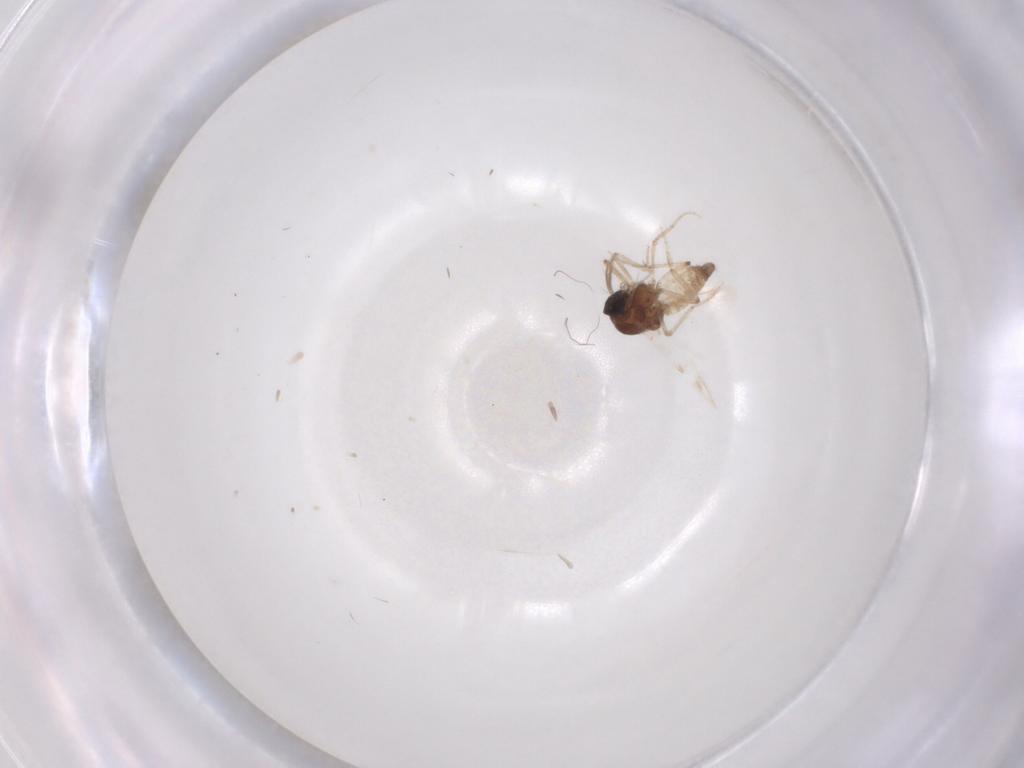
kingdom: Animalia
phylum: Arthropoda
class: Insecta
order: Diptera
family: Ceratopogonidae
